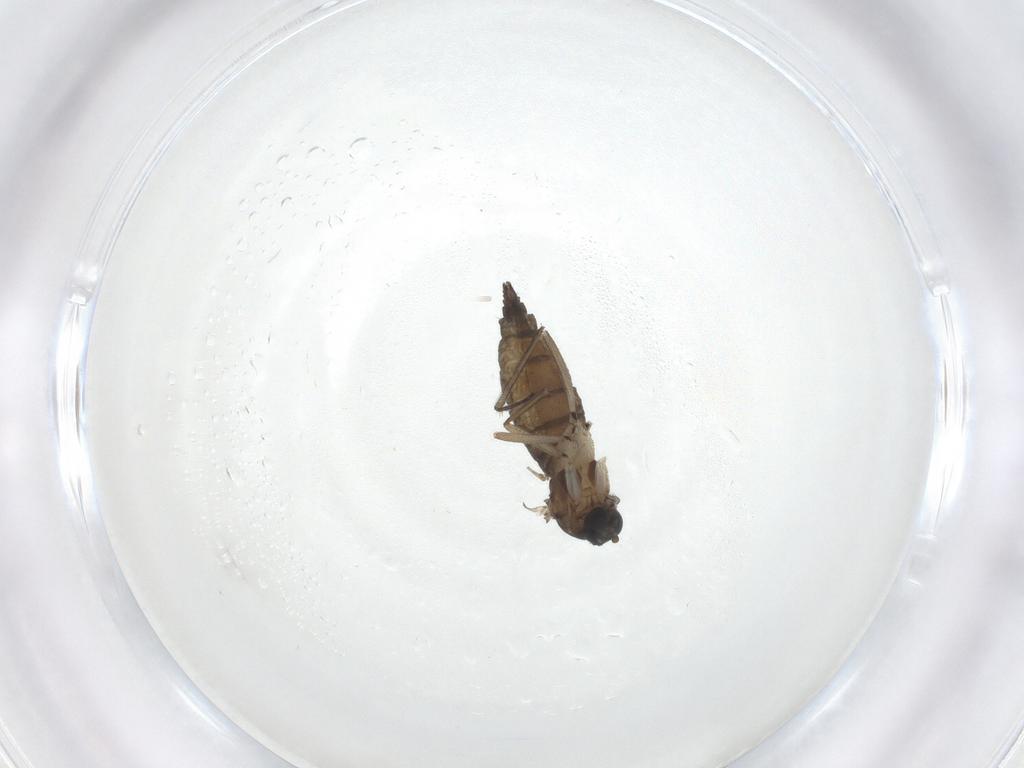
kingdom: Animalia
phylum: Arthropoda
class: Insecta
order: Diptera
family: Sciaridae
